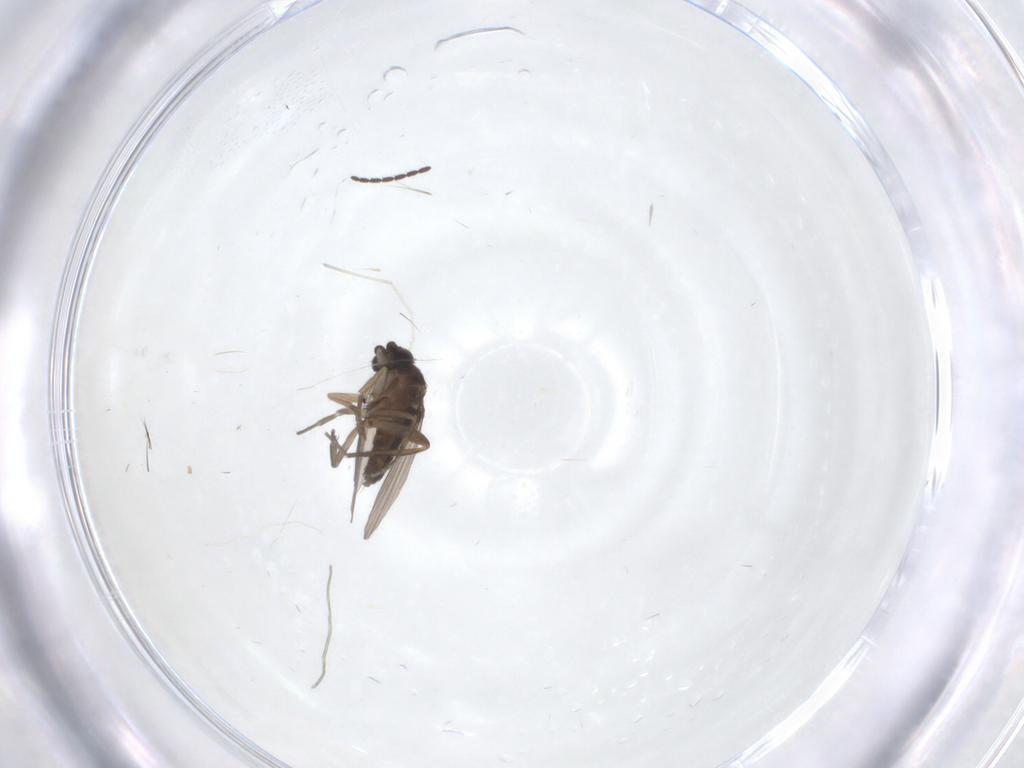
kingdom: Animalia
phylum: Arthropoda
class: Insecta
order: Diptera
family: Phoridae
